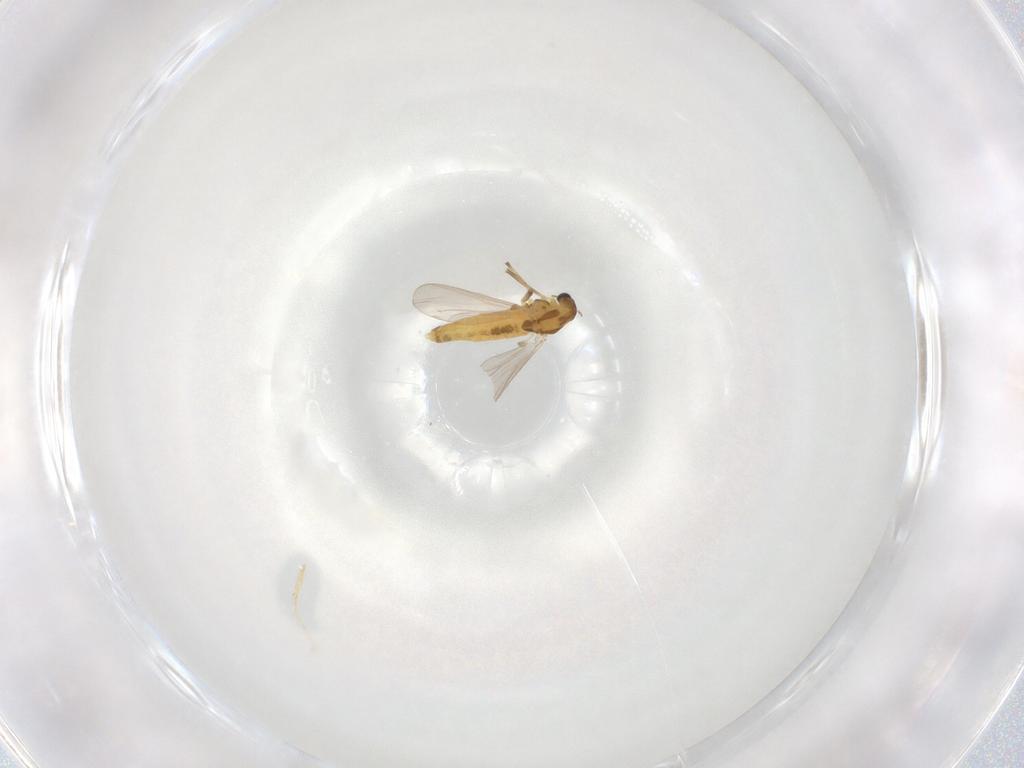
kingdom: Animalia
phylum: Arthropoda
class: Insecta
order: Diptera
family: Chironomidae
